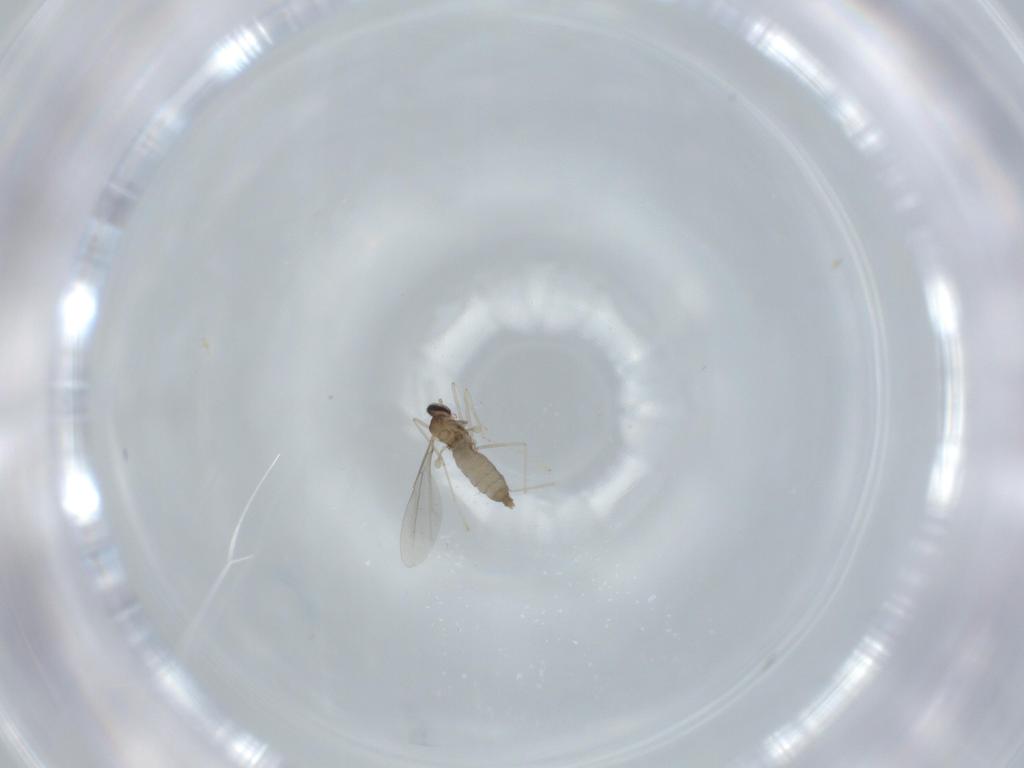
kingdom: Animalia
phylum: Arthropoda
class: Insecta
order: Diptera
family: Cecidomyiidae
